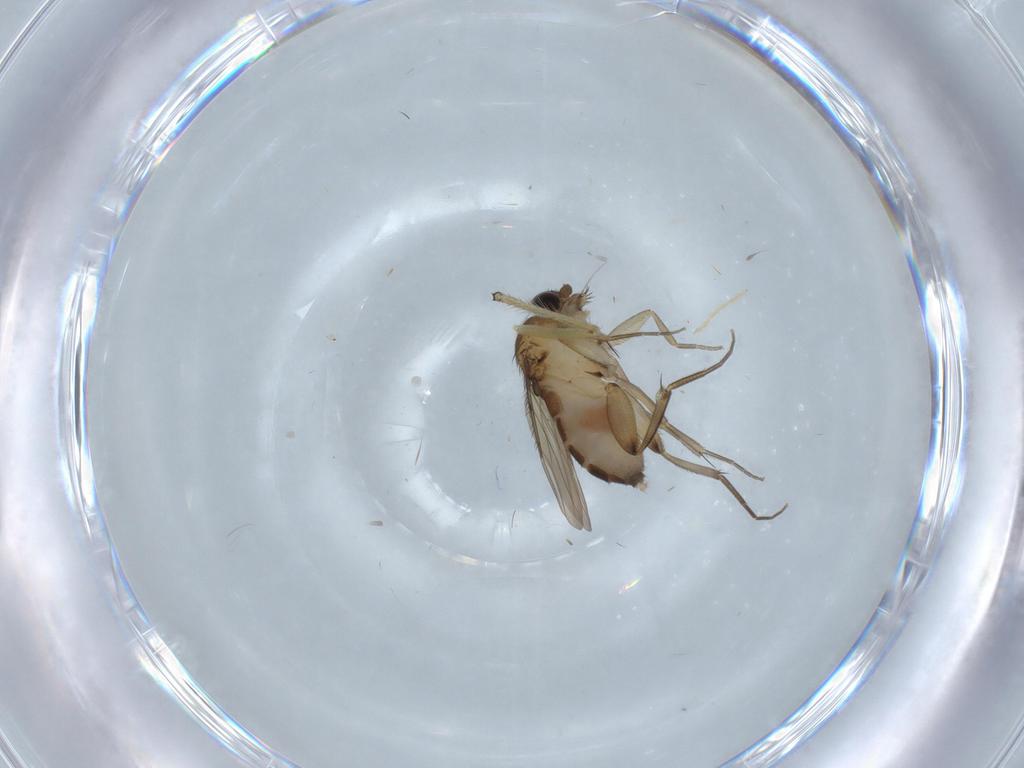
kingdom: Animalia
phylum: Arthropoda
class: Insecta
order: Diptera
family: Phoridae
